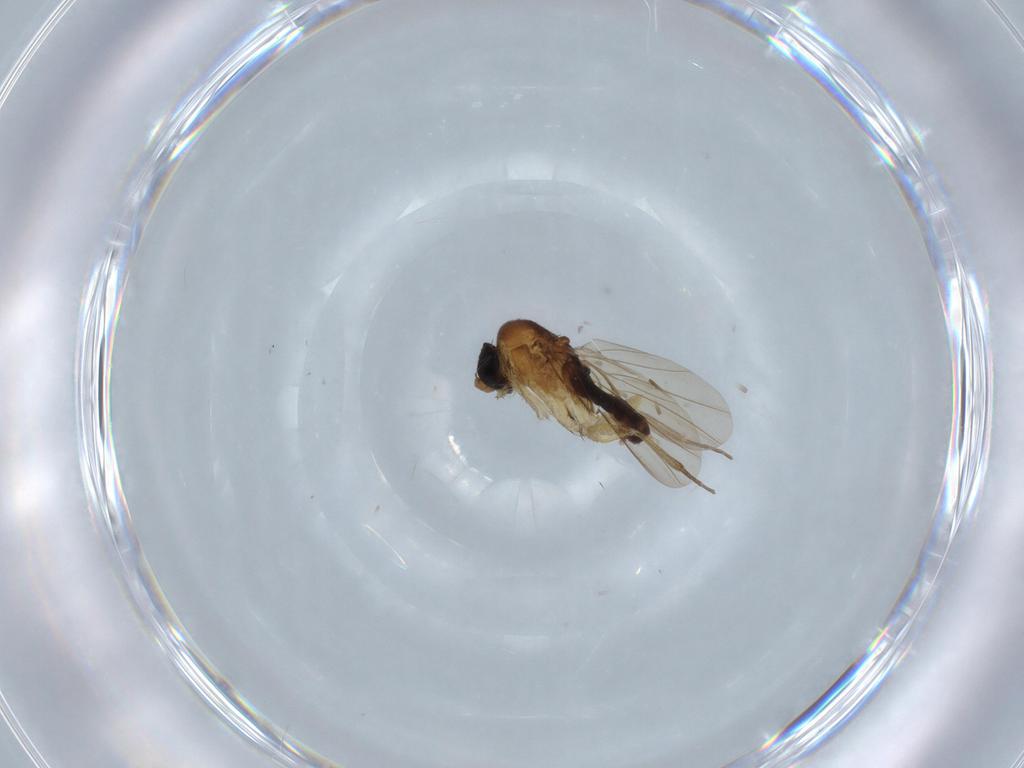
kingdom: Animalia
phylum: Arthropoda
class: Insecta
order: Diptera
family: Phoridae
